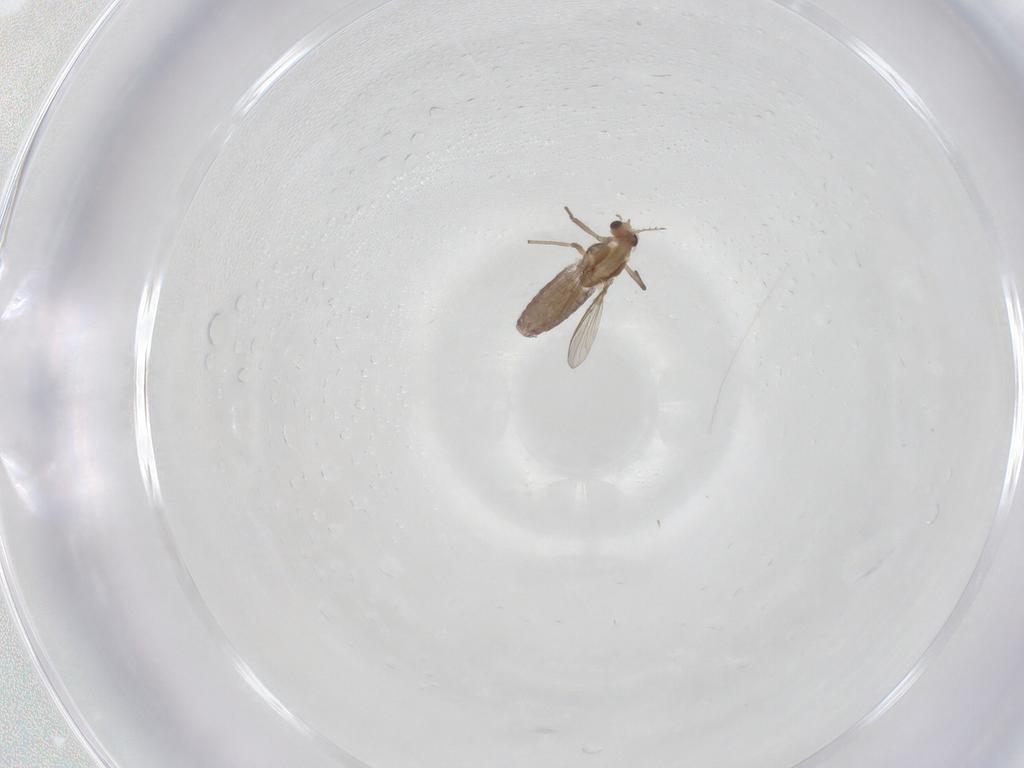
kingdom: Animalia
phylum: Arthropoda
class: Insecta
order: Diptera
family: Chironomidae
